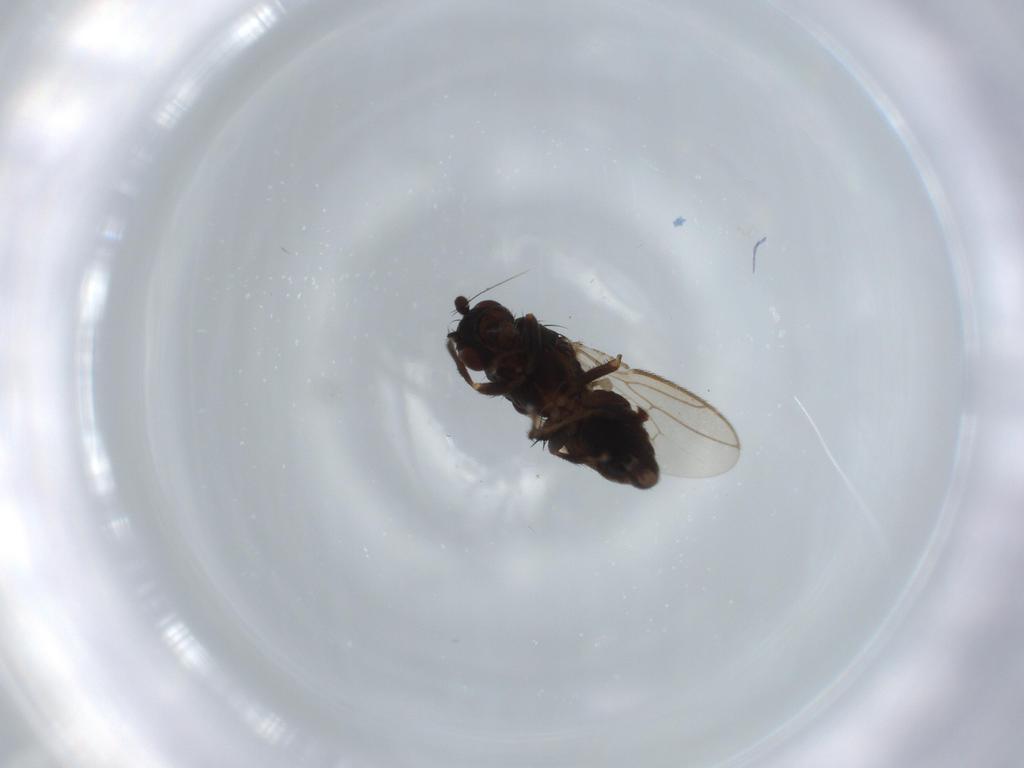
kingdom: Animalia
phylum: Arthropoda
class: Insecta
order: Diptera
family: Sphaeroceridae
